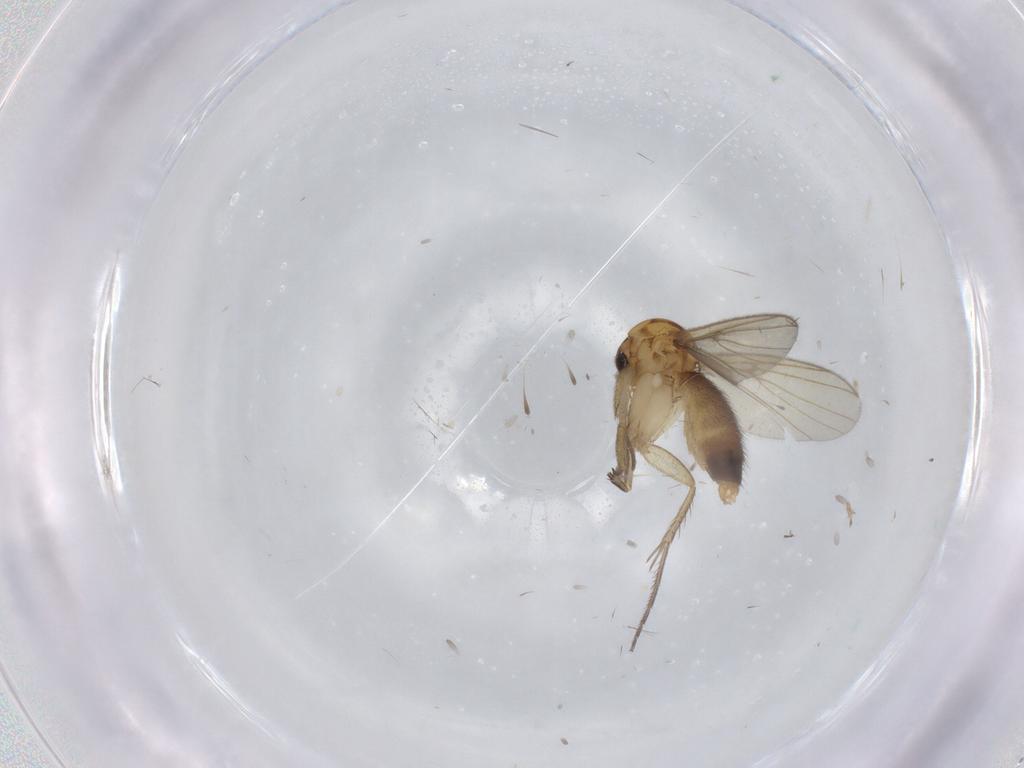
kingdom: Animalia
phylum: Arthropoda
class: Insecta
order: Diptera
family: Mycetophilidae
